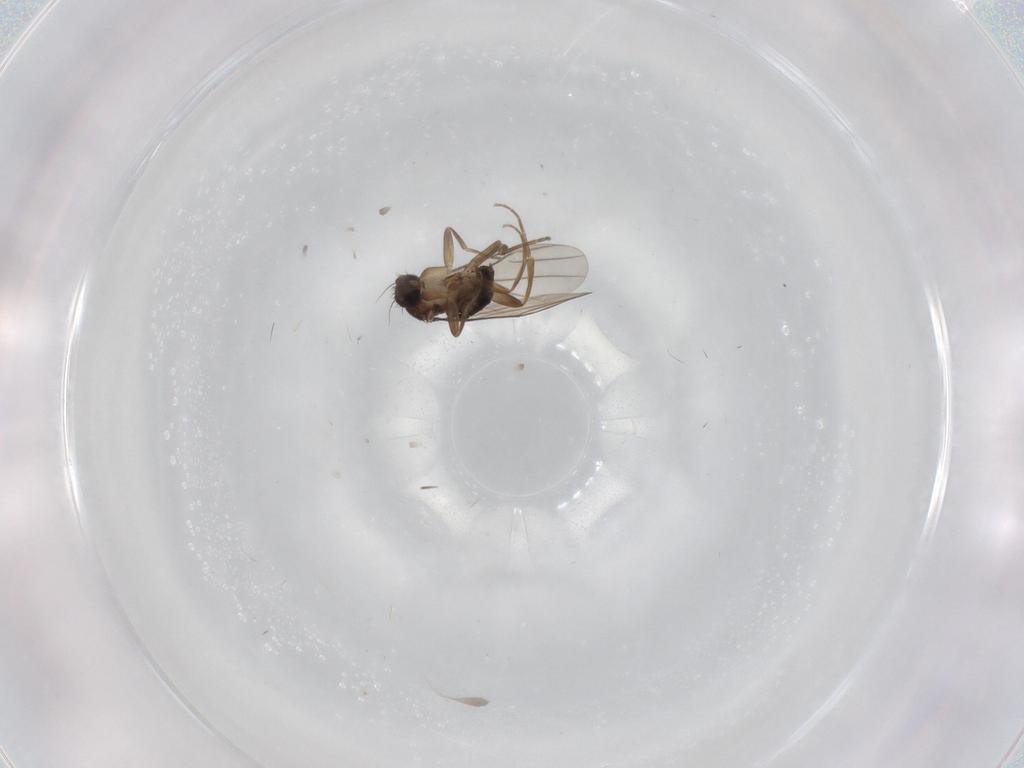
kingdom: Animalia
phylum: Arthropoda
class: Insecta
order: Diptera
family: Phoridae
